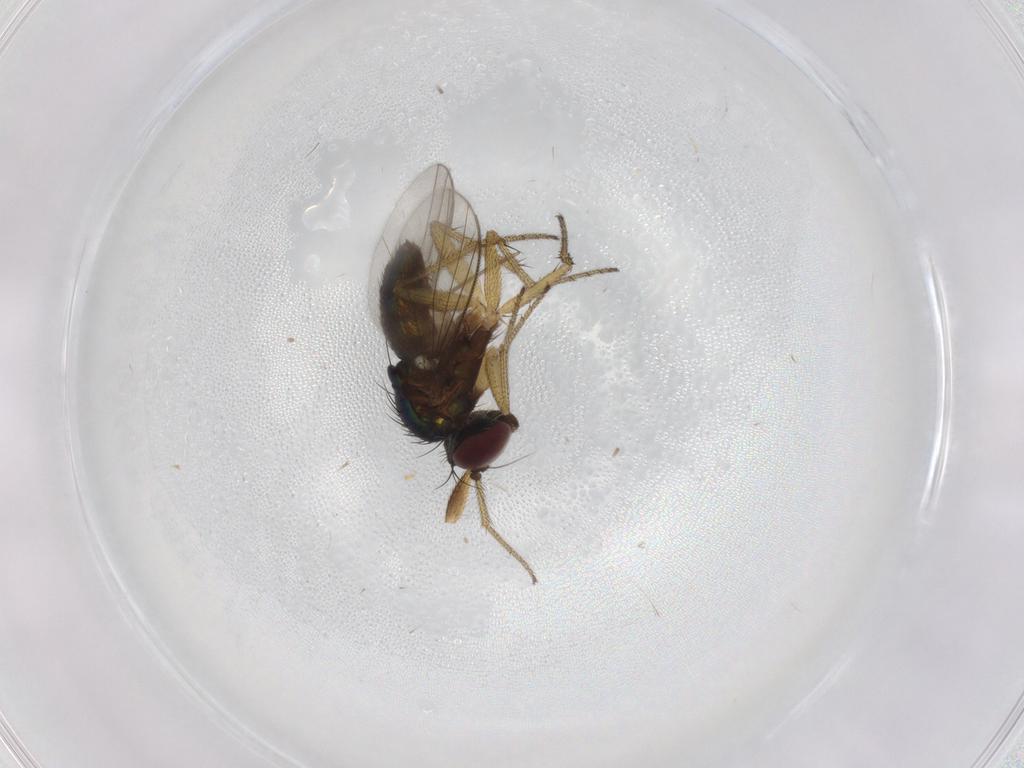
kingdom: Animalia
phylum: Arthropoda
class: Insecta
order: Diptera
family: Dolichopodidae
